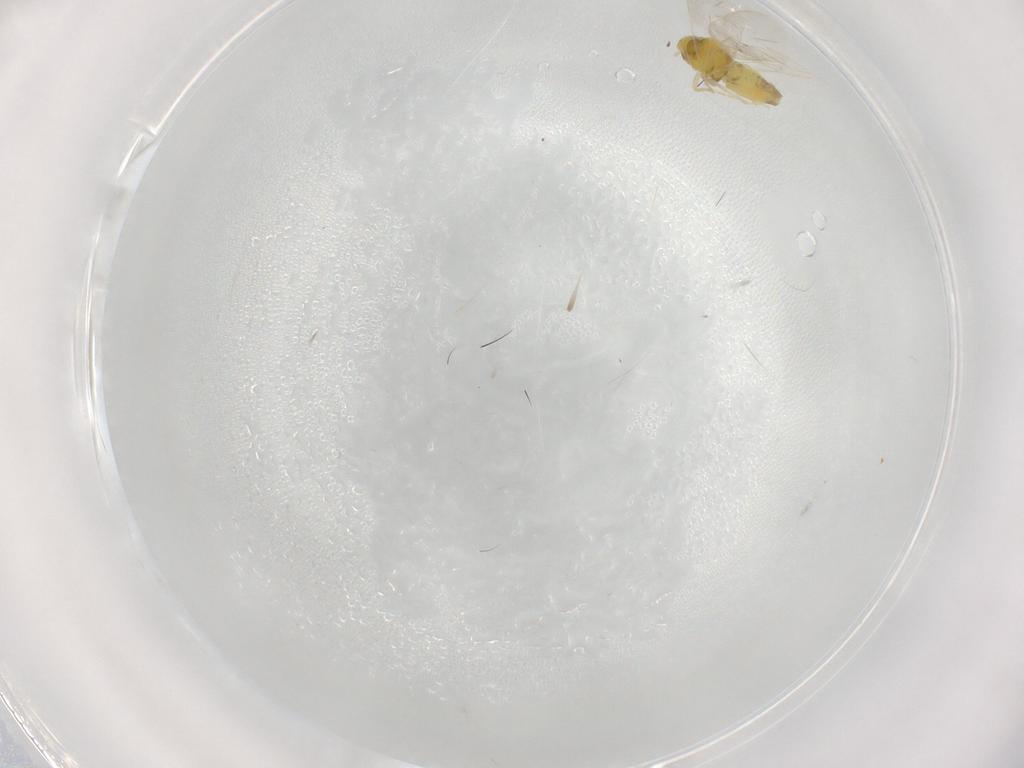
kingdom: Animalia
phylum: Arthropoda
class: Insecta
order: Hemiptera
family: Aleyrodidae
